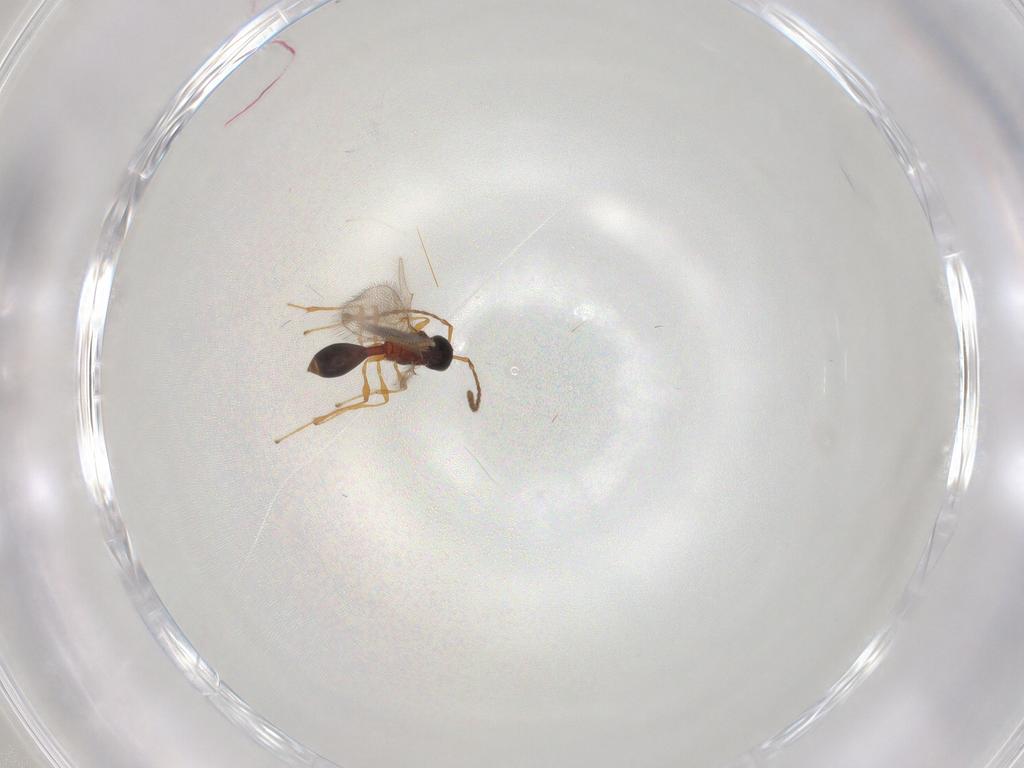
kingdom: Animalia
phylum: Arthropoda
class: Insecta
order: Hymenoptera
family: Diapriidae
